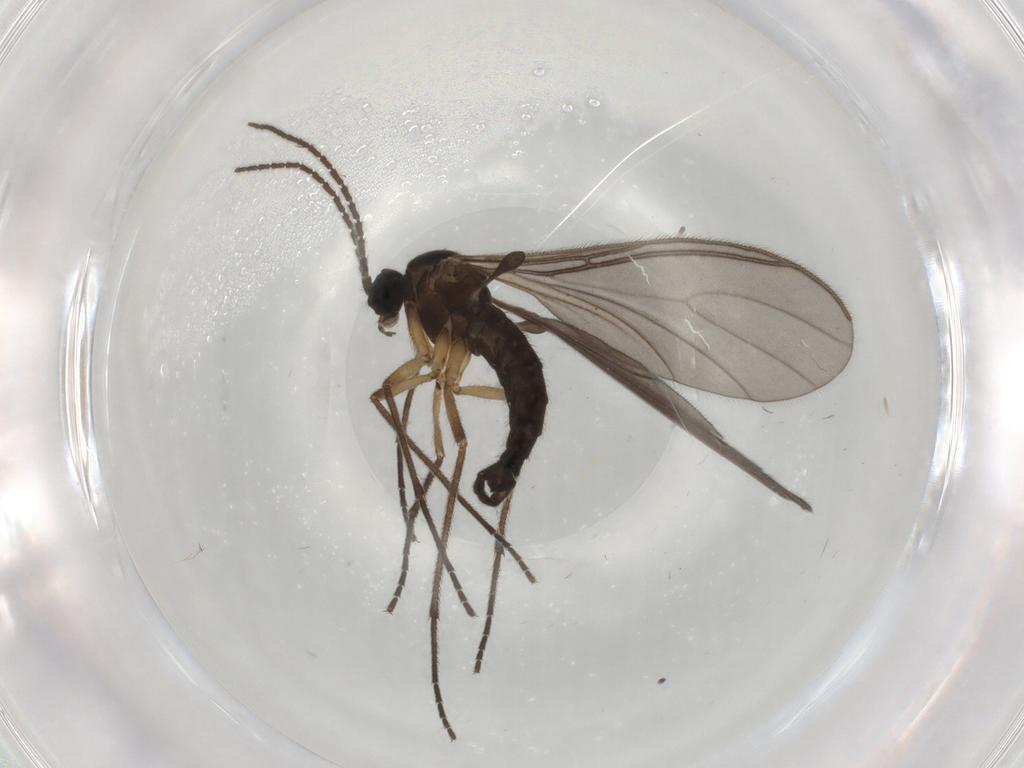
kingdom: Animalia
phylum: Arthropoda
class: Insecta
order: Diptera
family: Sciaridae
